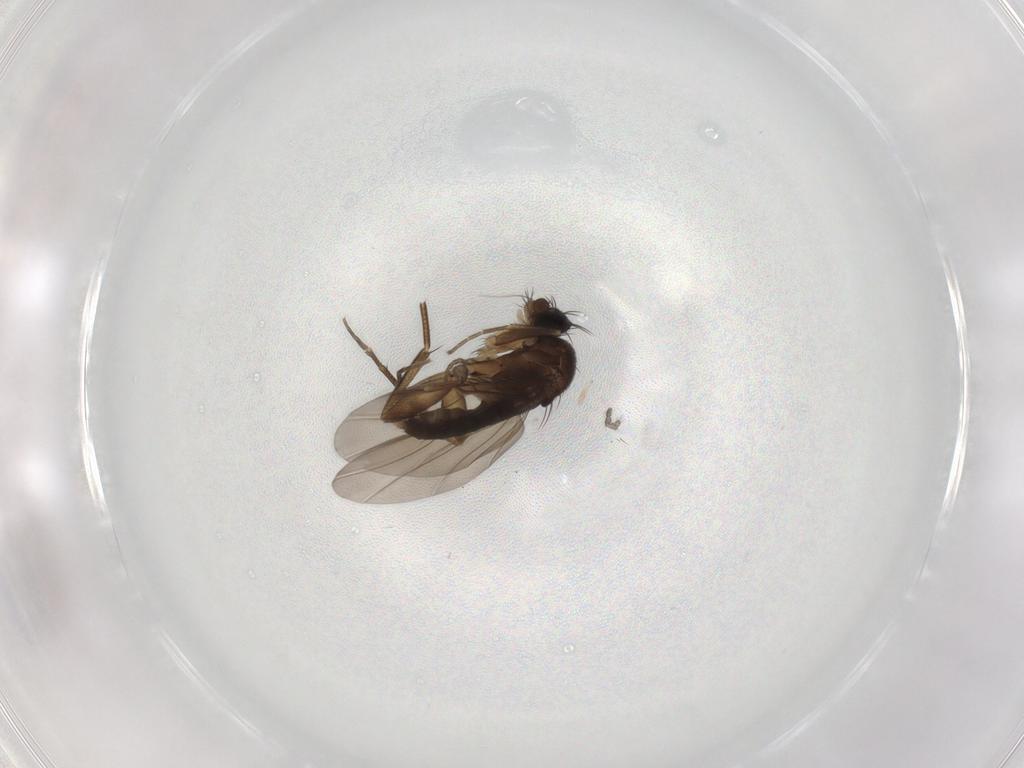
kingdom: Animalia
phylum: Arthropoda
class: Insecta
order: Diptera
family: Phoridae
